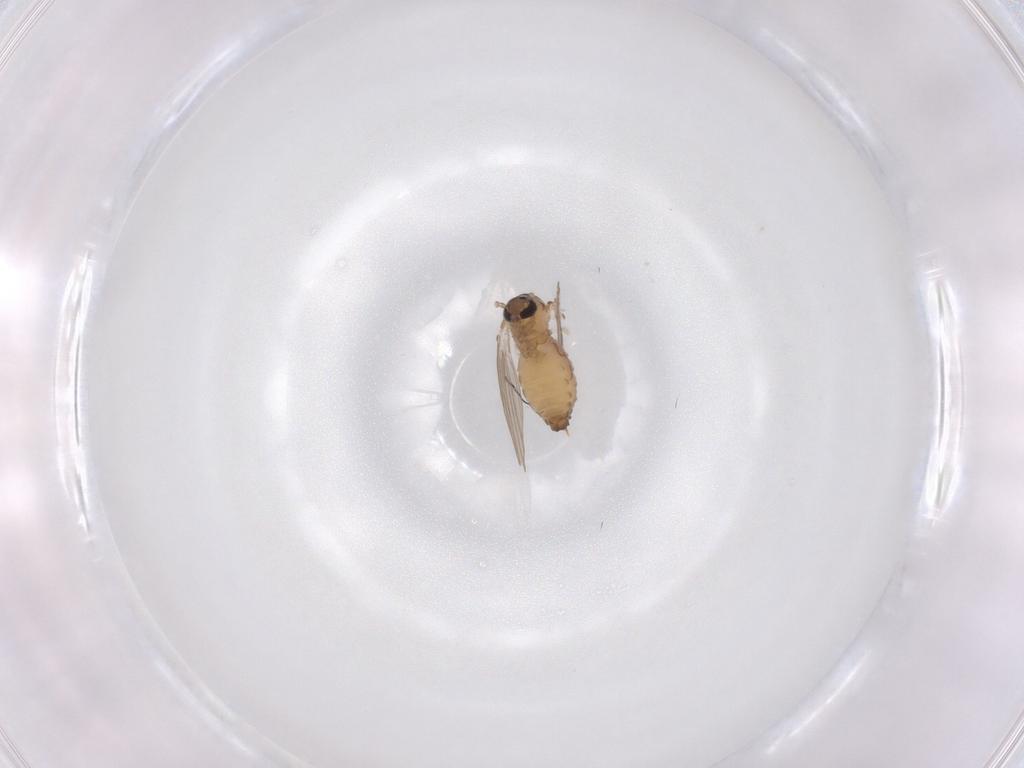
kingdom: Animalia
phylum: Arthropoda
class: Insecta
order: Diptera
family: Psychodidae
